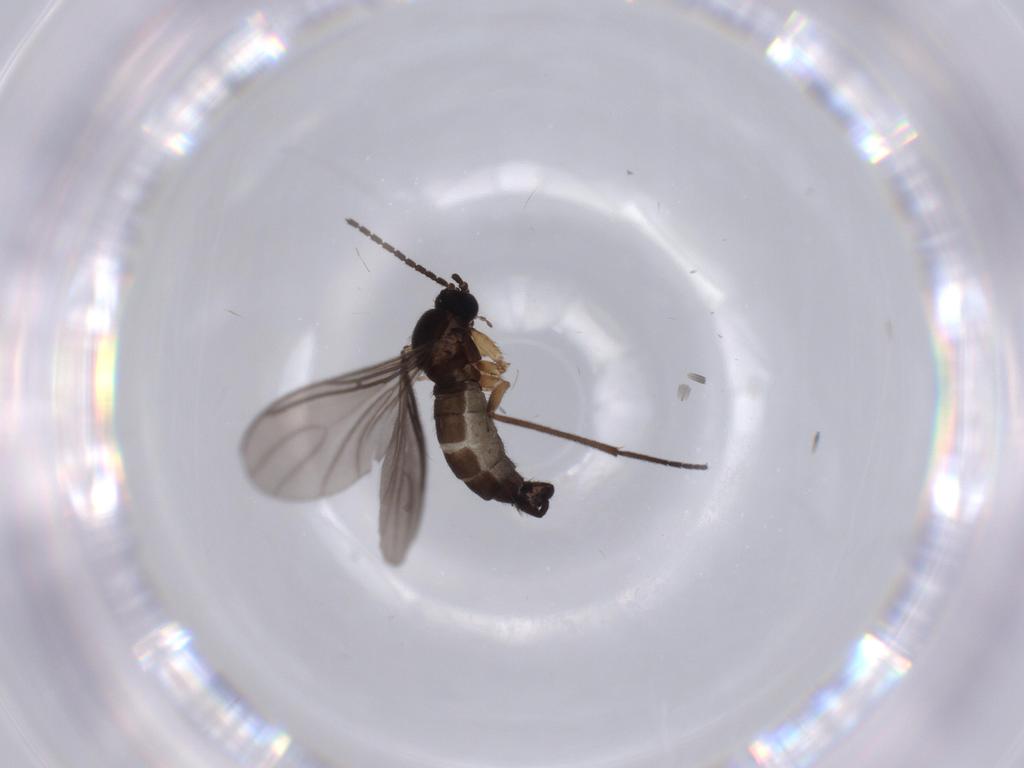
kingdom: Animalia
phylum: Arthropoda
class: Insecta
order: Diptera
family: Sciaridae
